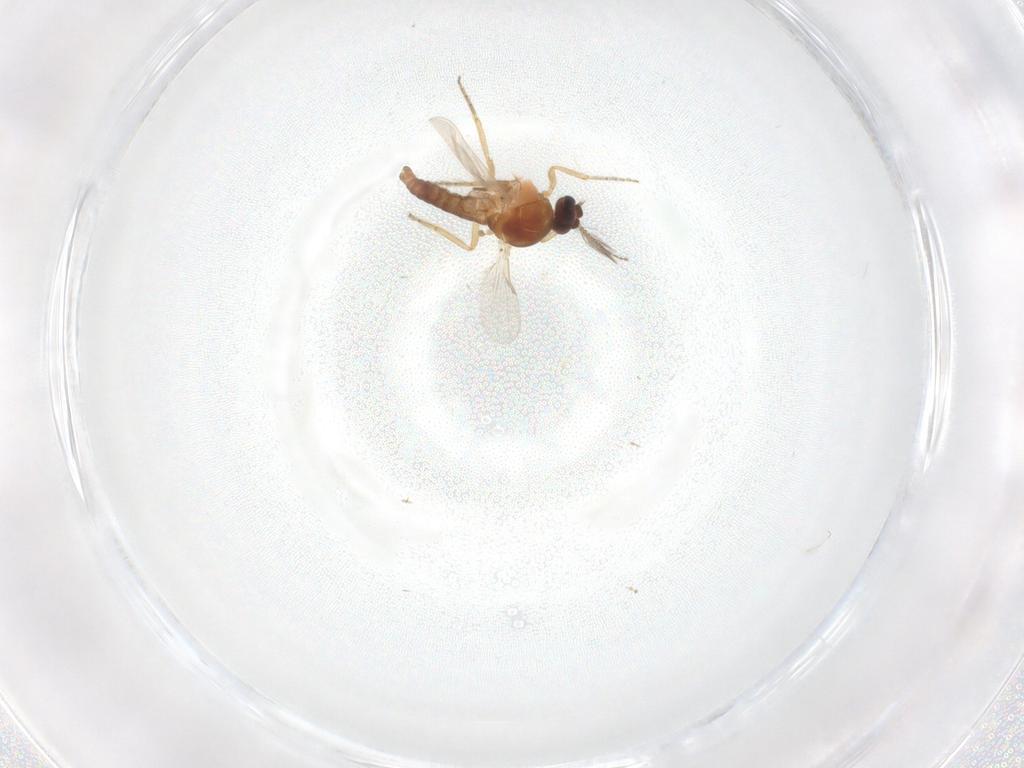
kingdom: Animalia
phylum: Arthropoda
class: Insecta
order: Diptera
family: Ceratopogonidae
